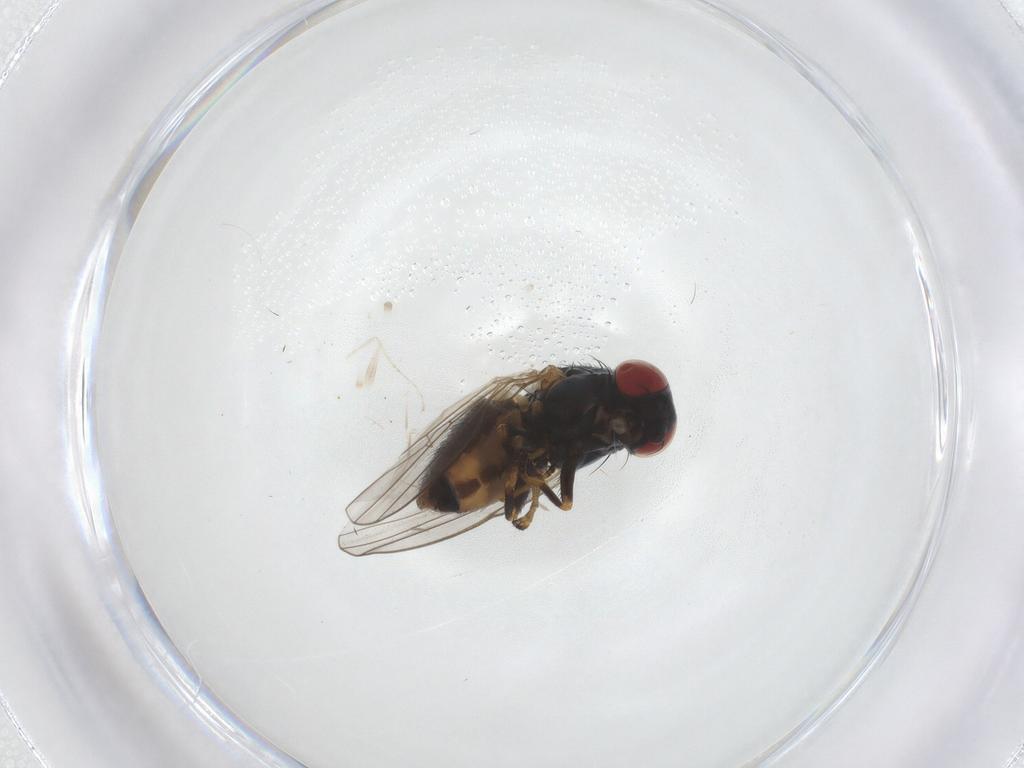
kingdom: Animalia
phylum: Arthropoda
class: Insecta
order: Diptera
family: Chamaemyiidae
